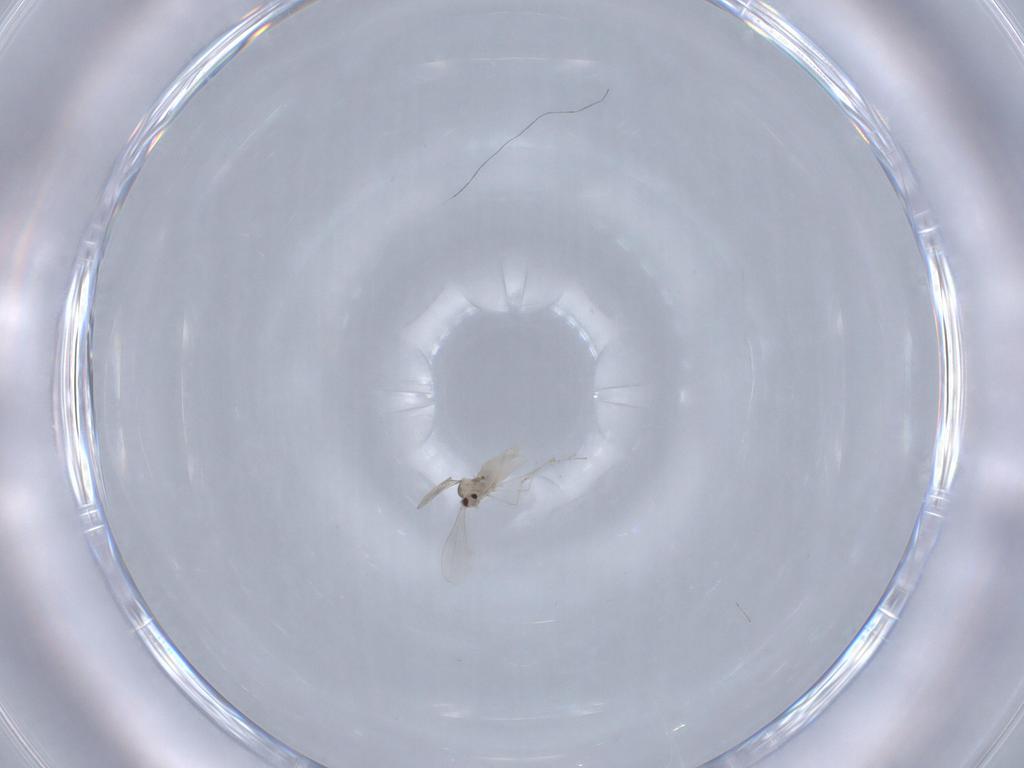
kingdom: Animalia
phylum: Arthropoda
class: Insecta
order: Diptera
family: Cecidomyiidae
